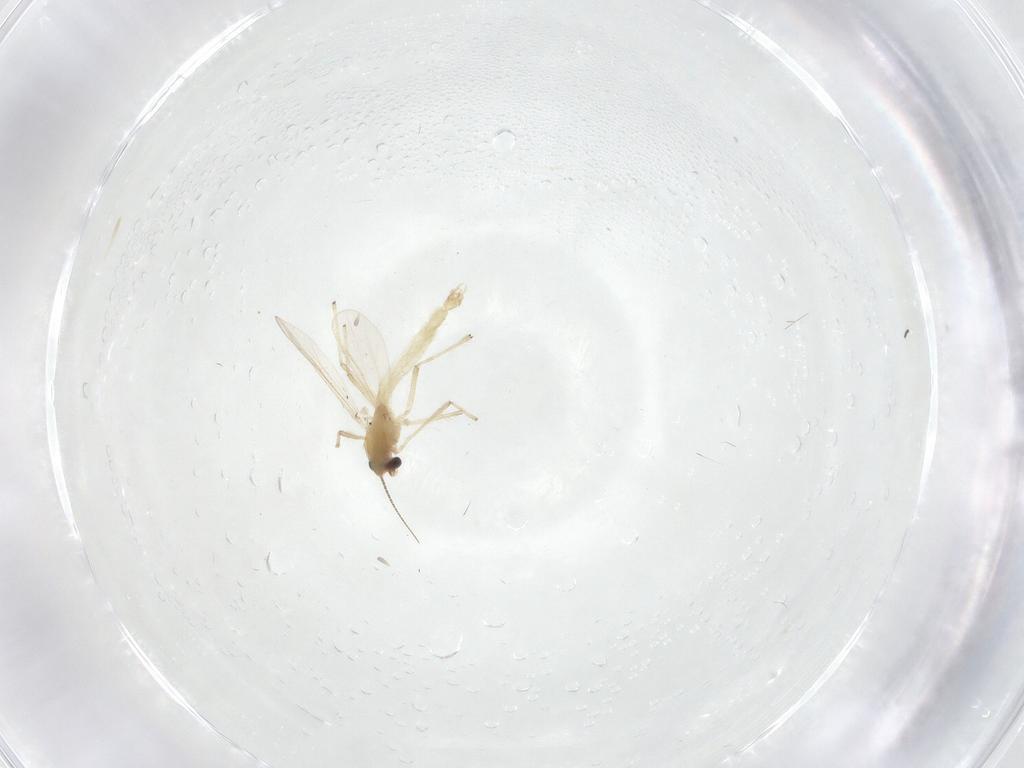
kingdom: Animalia
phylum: Arthropoda
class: Insecta
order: Diptera
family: Chironomidae
